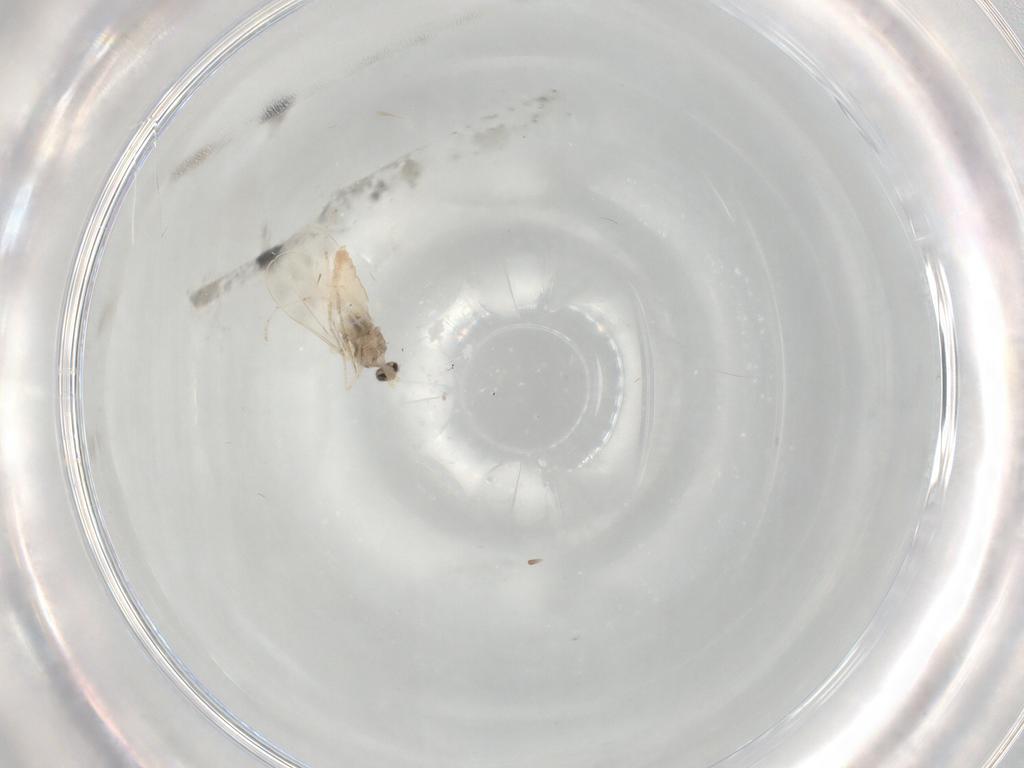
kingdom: Animalia
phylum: Arthropoda
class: Insecta
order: Diptera
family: Cecidomyiidae
